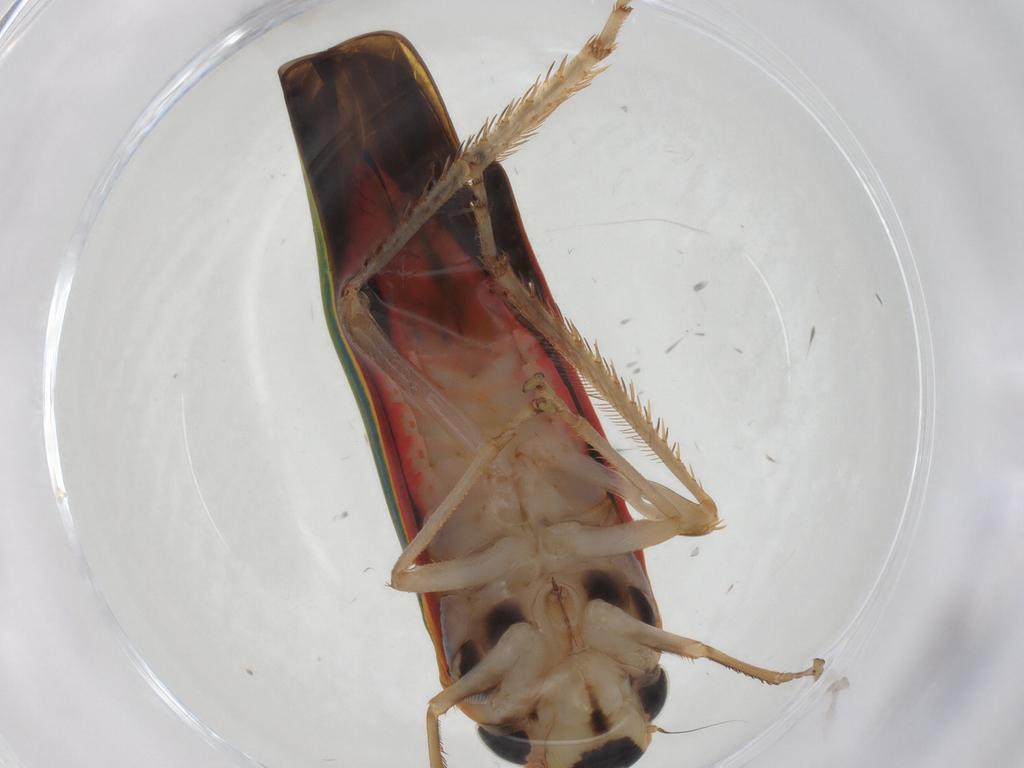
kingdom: Animalia
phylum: Arthropoda
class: Insecta
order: Hemiptera
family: Cicadellidae
